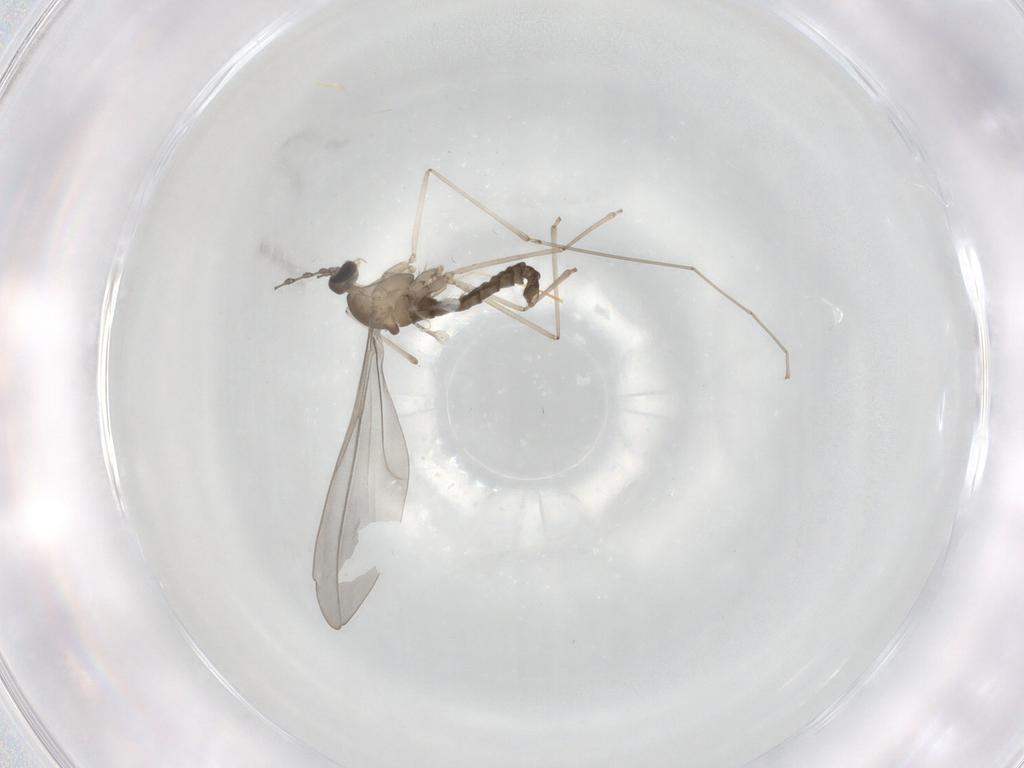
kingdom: Animalia
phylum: Arthropoda
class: Insecta
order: Diptera
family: Cecidomyiidae
